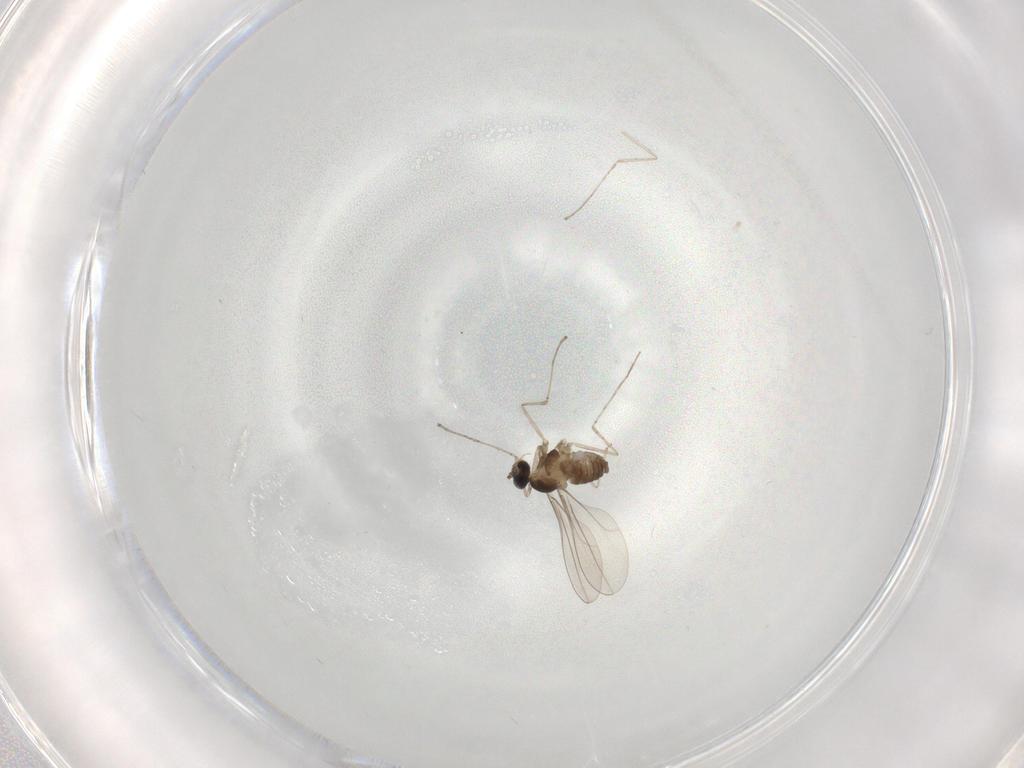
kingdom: Animalia
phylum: Arthropoda
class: Insecta
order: Diptera
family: Cecidomyiidae
